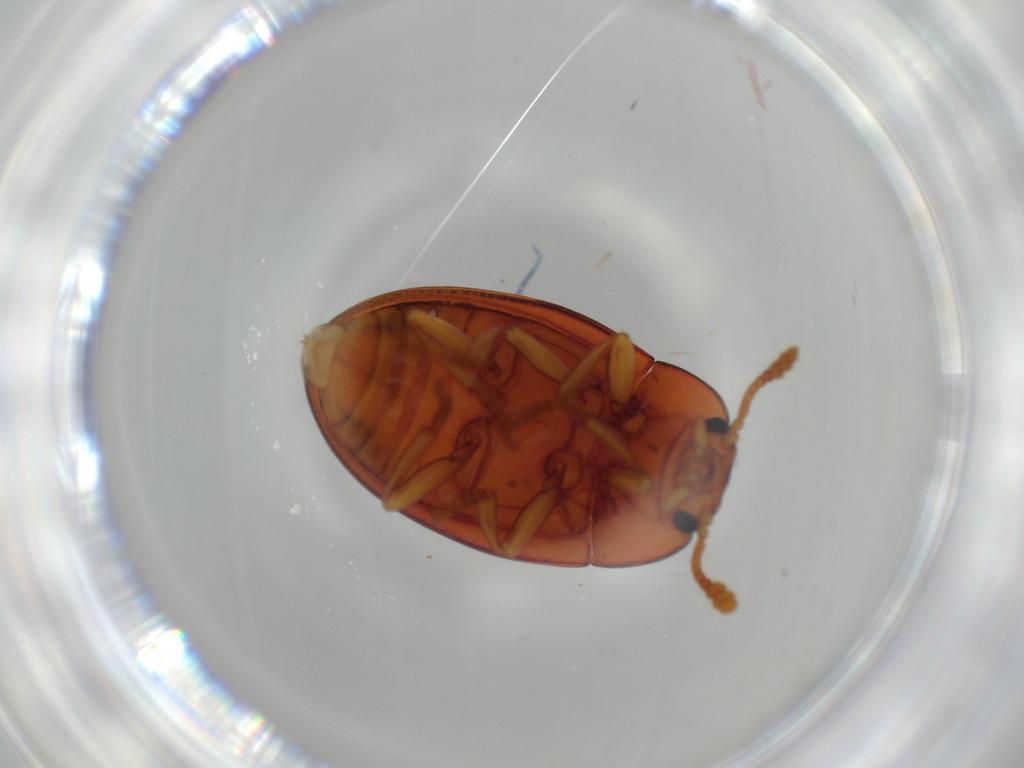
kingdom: Animalia
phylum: Arthropoda
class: Insecta
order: Coleoptera
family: Erotylidae
